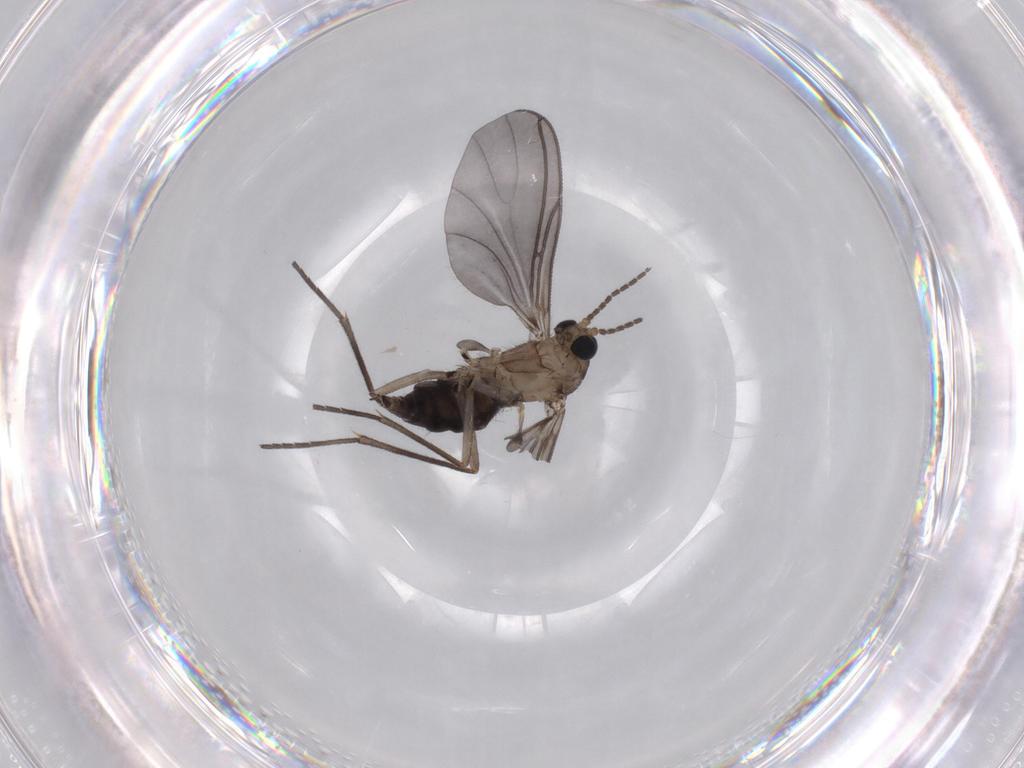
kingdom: Animalia
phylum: Arthropoda
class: Insecta
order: Diptera
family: Sciaridae
